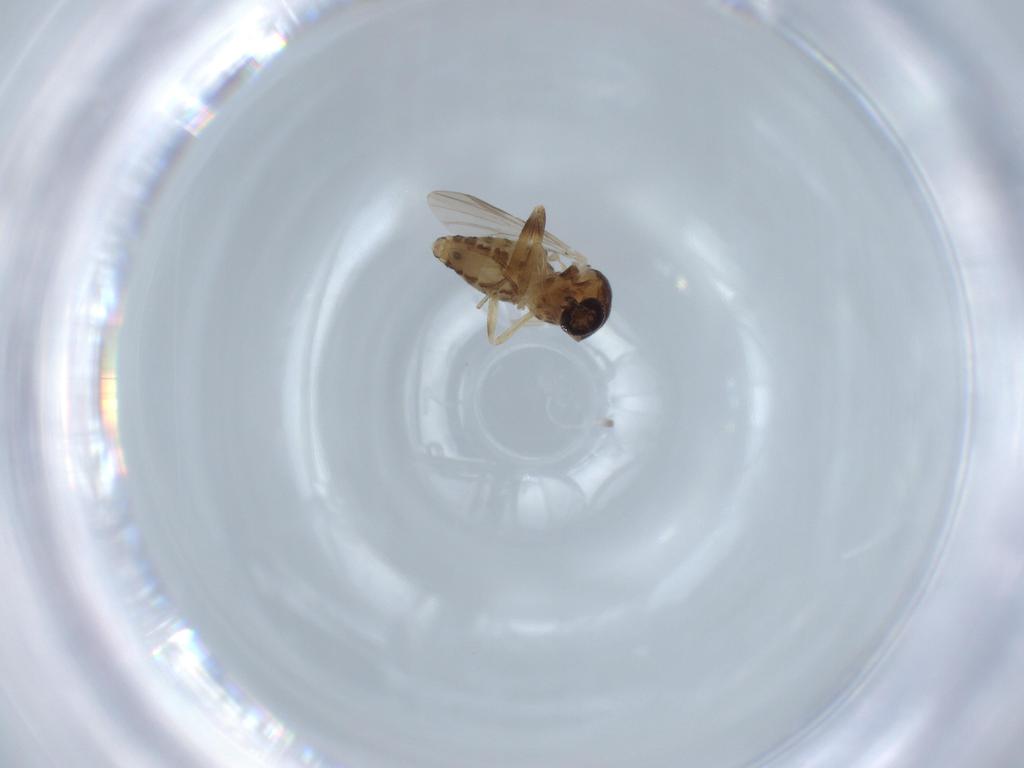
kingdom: Animalia
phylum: Arthropoda
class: Insecta
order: Diptera
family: Ceratopogonidae
